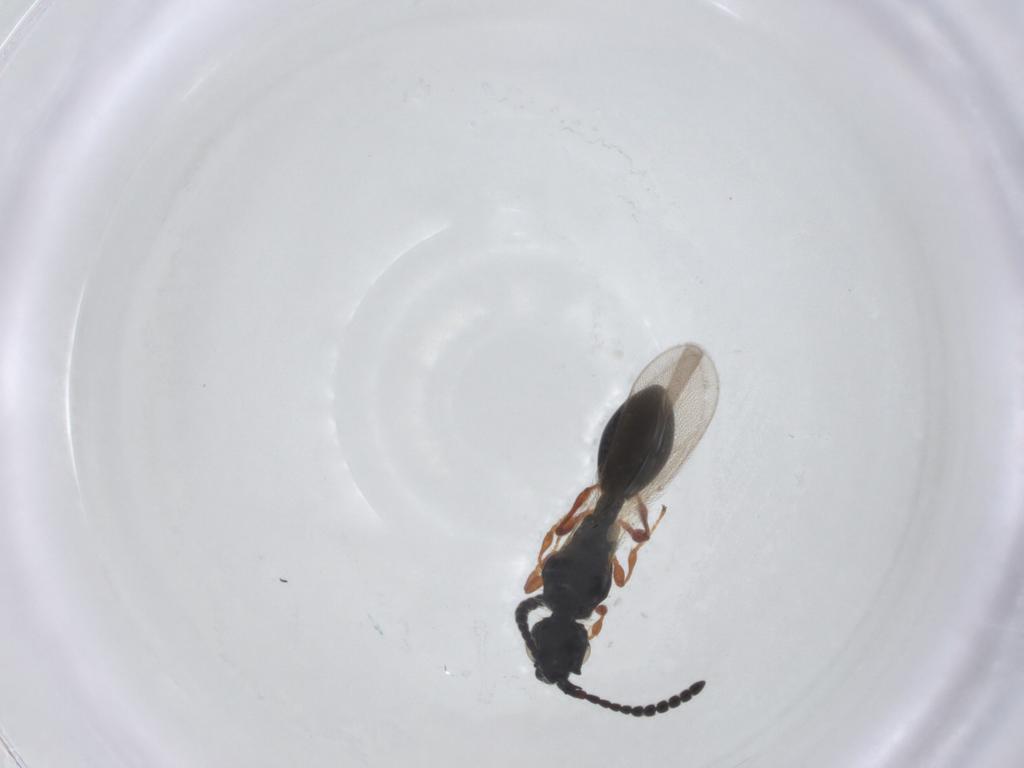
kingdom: Animalia
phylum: Arthropoda
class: Insecta
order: Hymenoptera
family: Diapriidae
